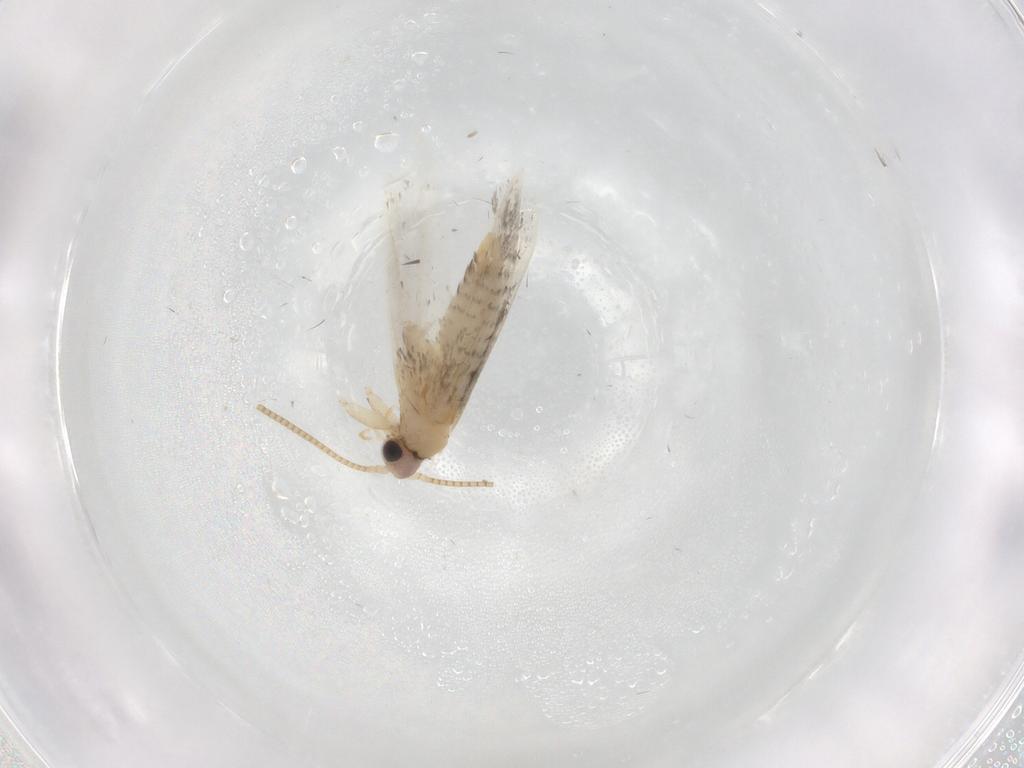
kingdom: Animalia
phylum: Arthropoda
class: Insecta
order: Lepidoptera
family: Tineidae
